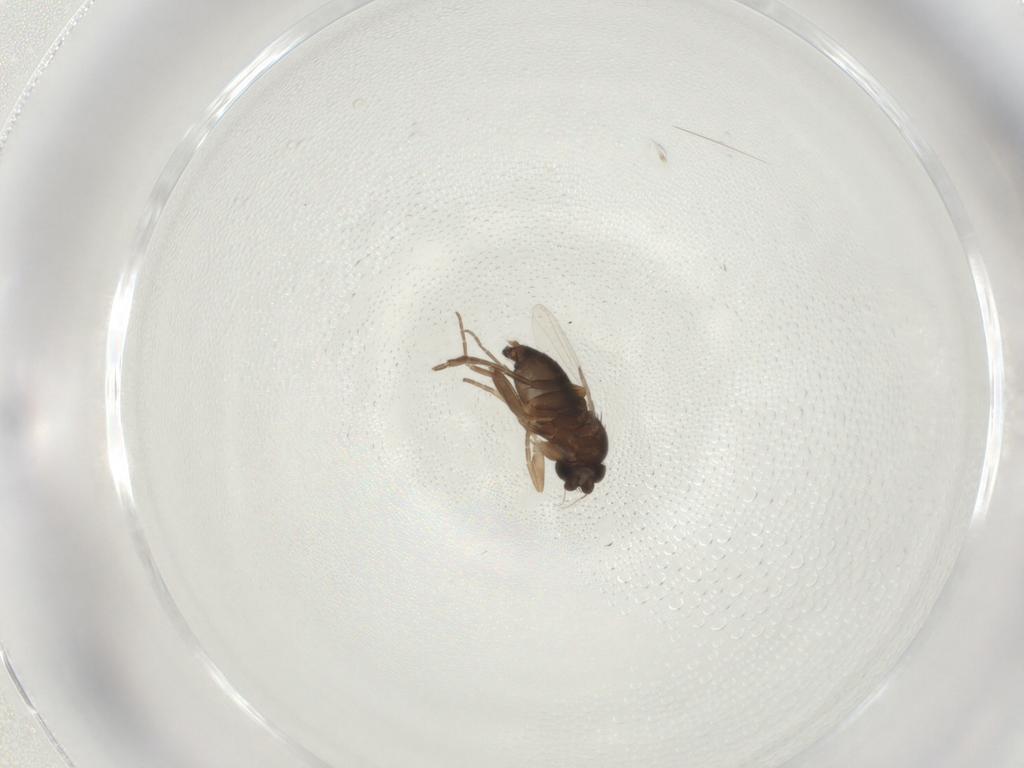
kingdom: Animalia
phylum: Arthropoda
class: Insecta
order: Diptera
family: Phoridae
